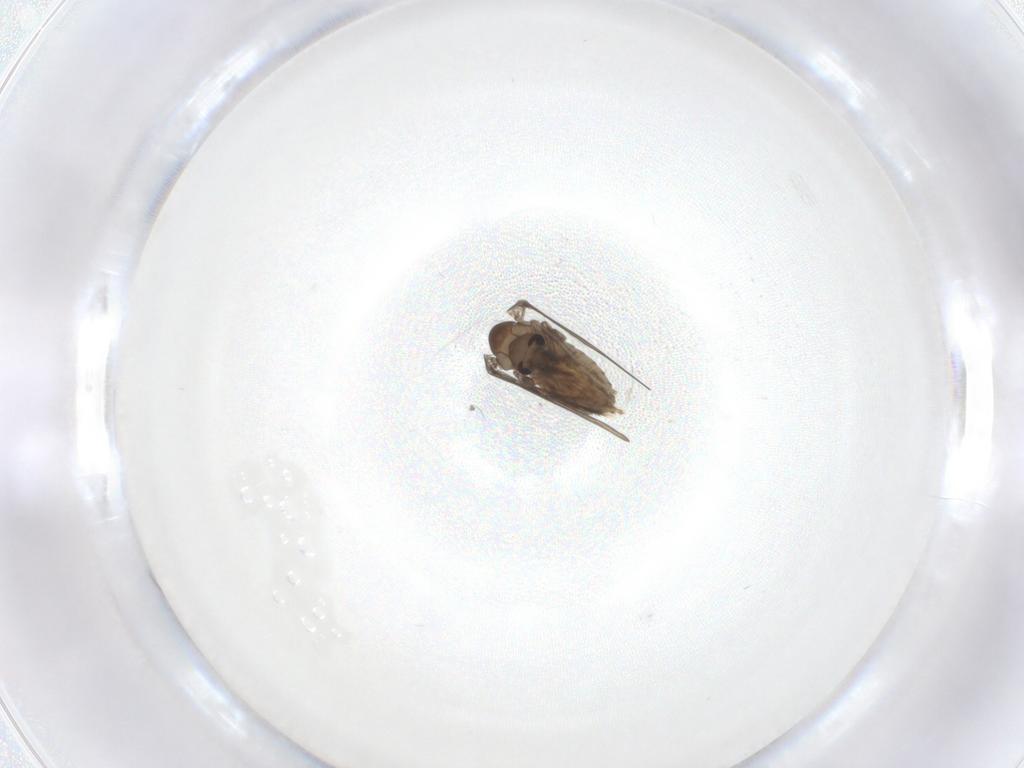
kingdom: Animalia
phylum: Arthropoda
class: Insecta
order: Diptera
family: Psychodidae
